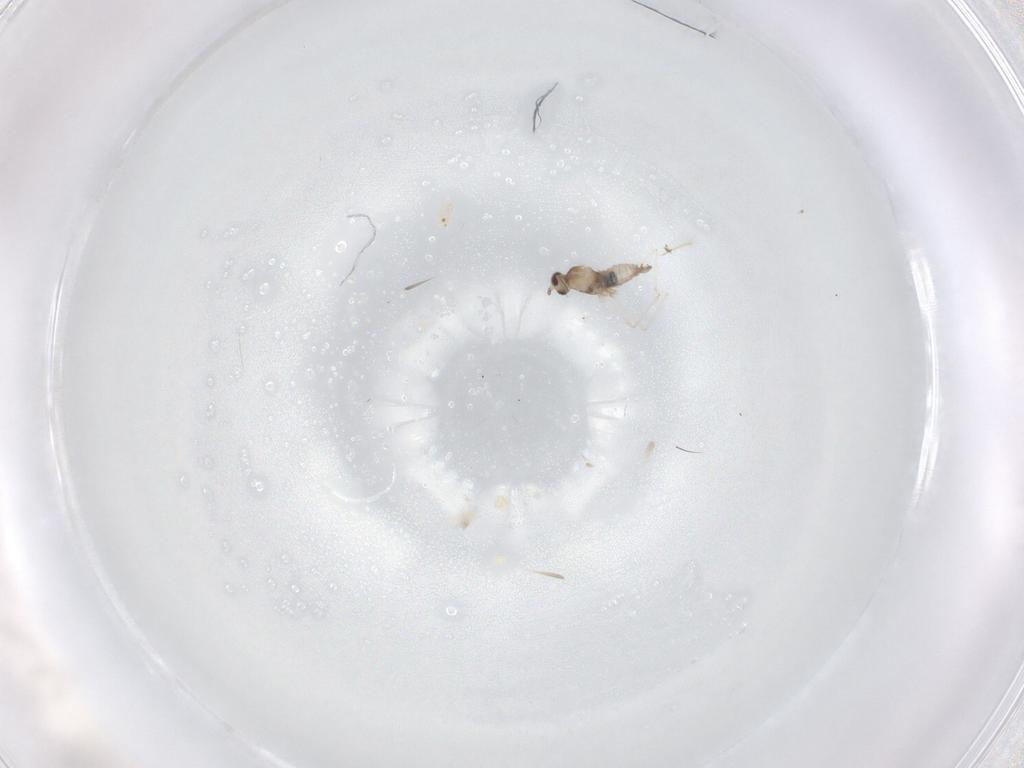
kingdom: Animalia
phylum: Arthropoda
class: Insecta
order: Diptera
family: Cecidomyiidae
